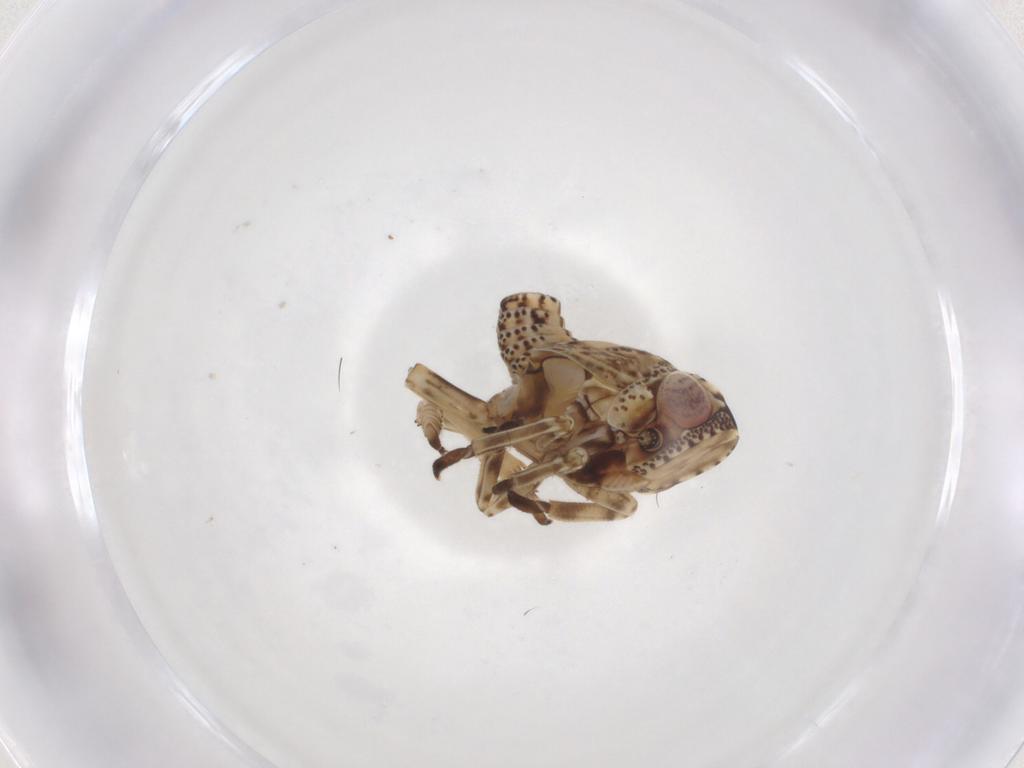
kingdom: Animalia
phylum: Arthropoda
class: Insecta
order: Hemiptera
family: Tropiduchidae
